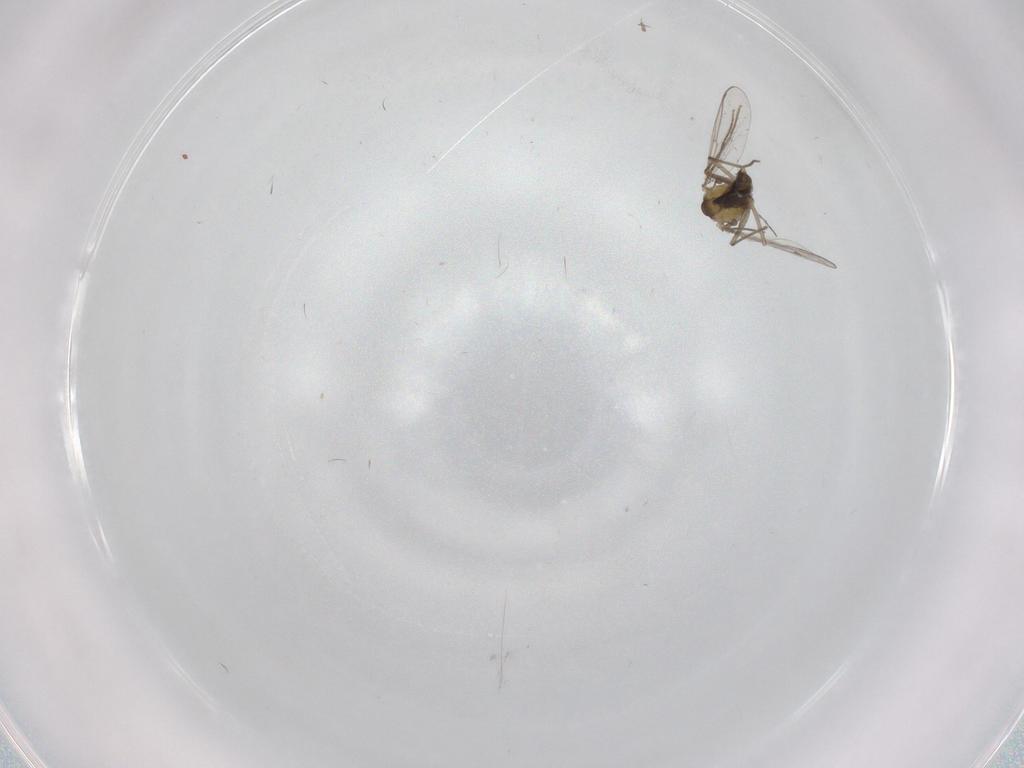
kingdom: Animalia
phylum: Arthropoda
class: Insecta
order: Diptera
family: Chironomidae
